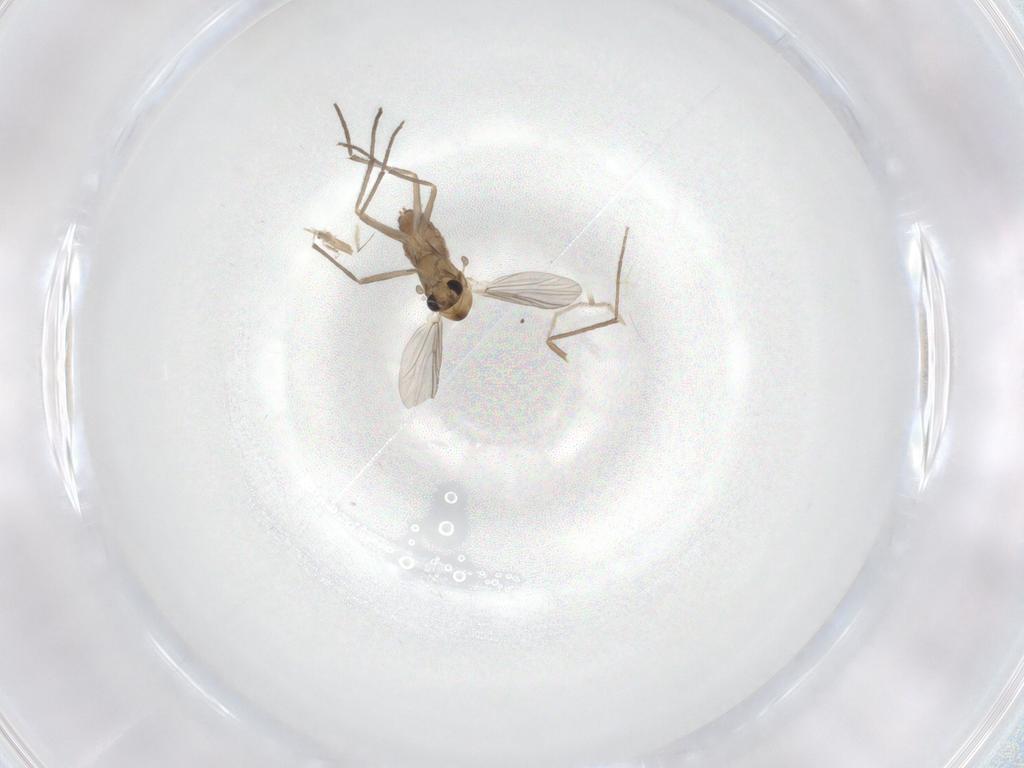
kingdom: Animalia
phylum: Arthropoda
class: Insecta
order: Diptera
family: Chironomidae
